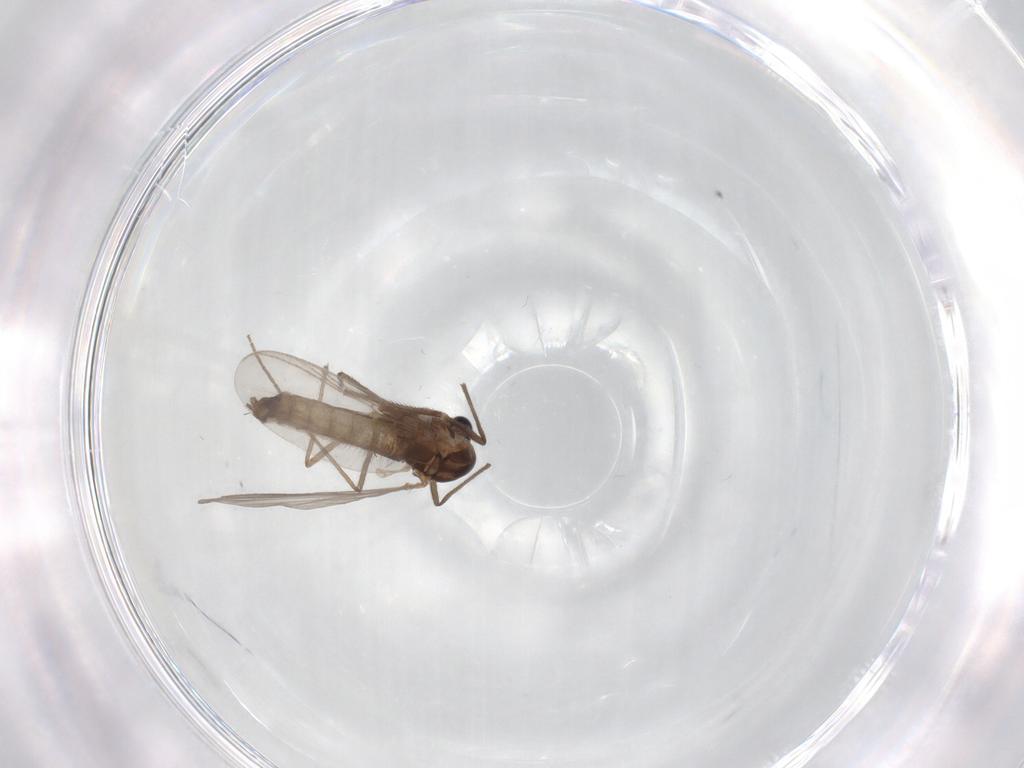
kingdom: Animalia
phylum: Arthropoda
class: Insecta
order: Diptera
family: Chironomidae
